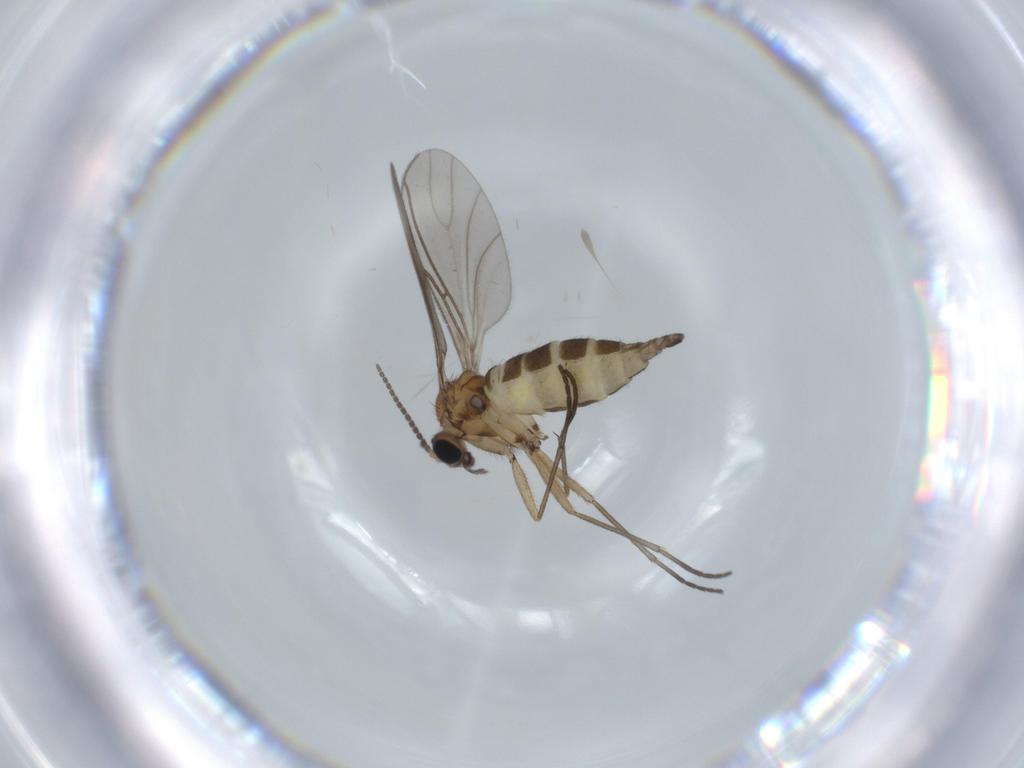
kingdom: Animalia
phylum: Arthropoda
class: Insecta
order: Diptera
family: Sciaridae
